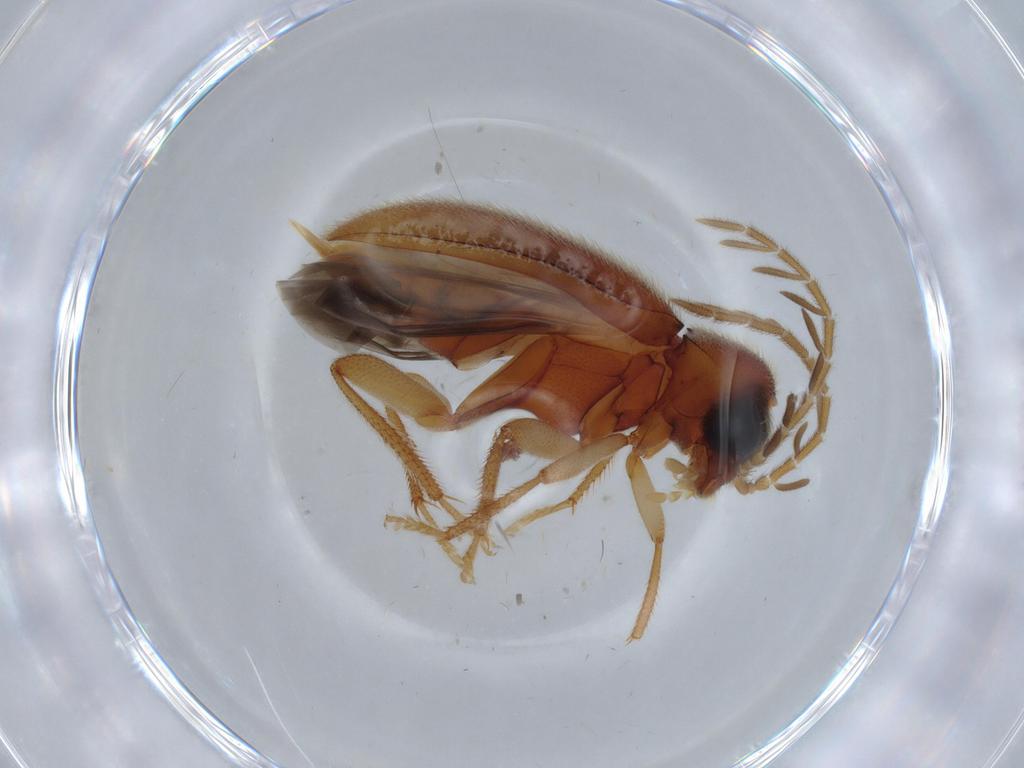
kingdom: Animalia
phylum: Arthropoda
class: Insecta
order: Coleoptera
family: Ptilodactylidae
